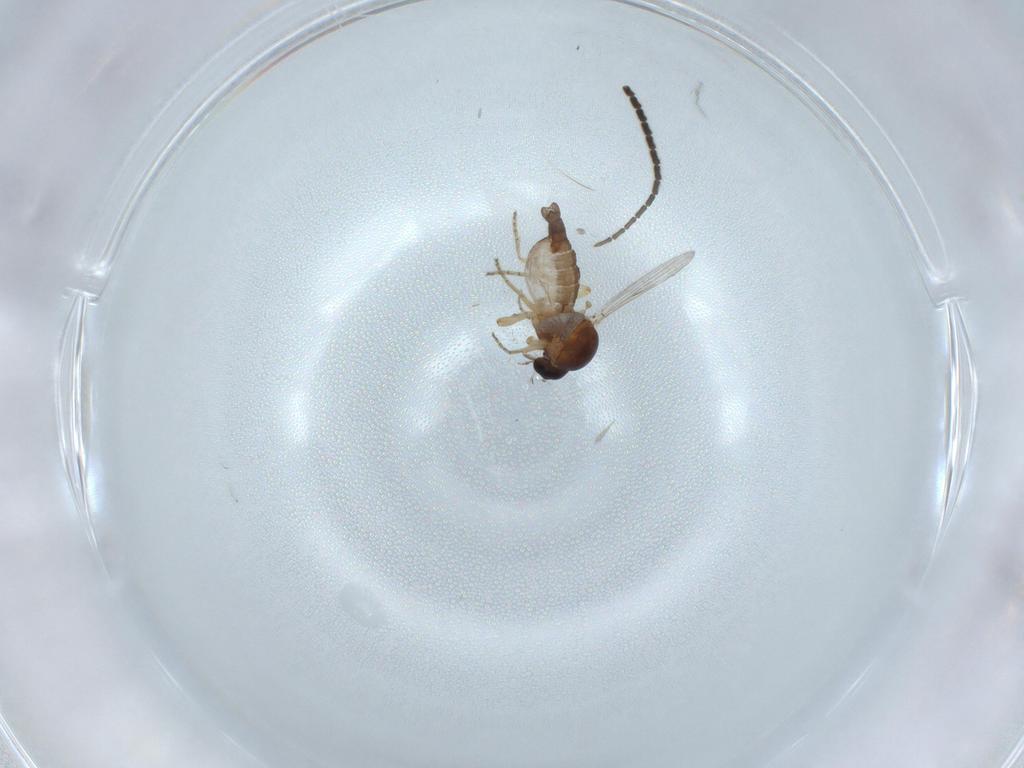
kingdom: Animalia
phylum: Arthropoda
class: Insecta
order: Diptera
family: Sciaridae
